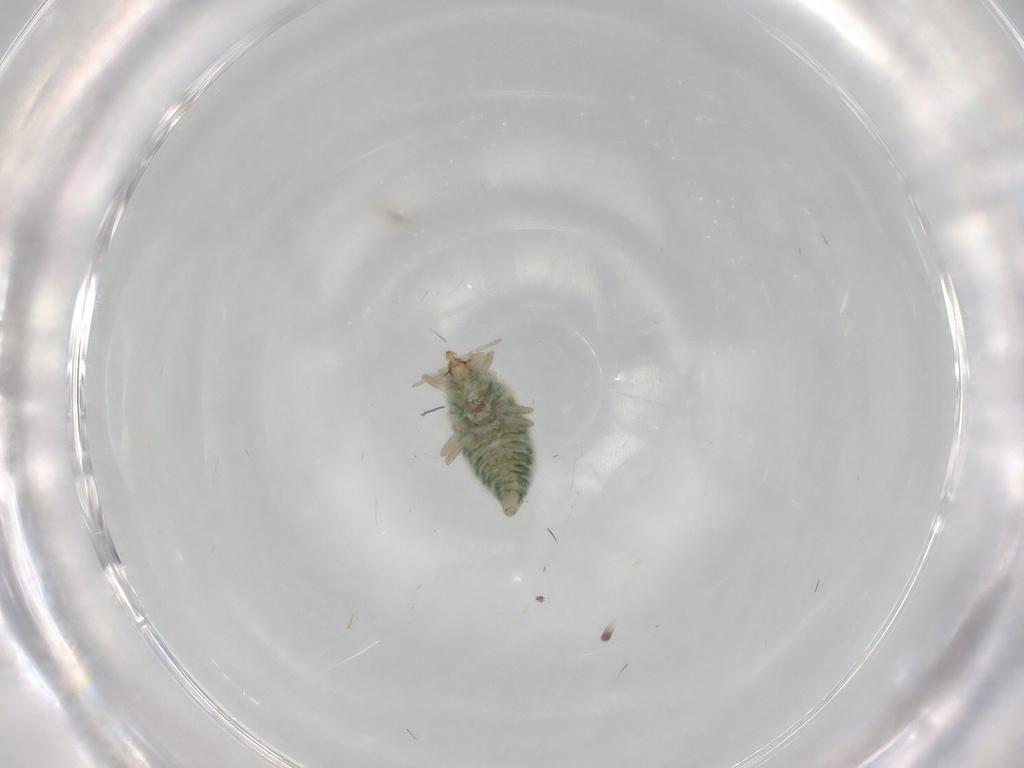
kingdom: Animalia
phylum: Arthropoda
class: Insecta
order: Neuroptera
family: Coniopterygidae
